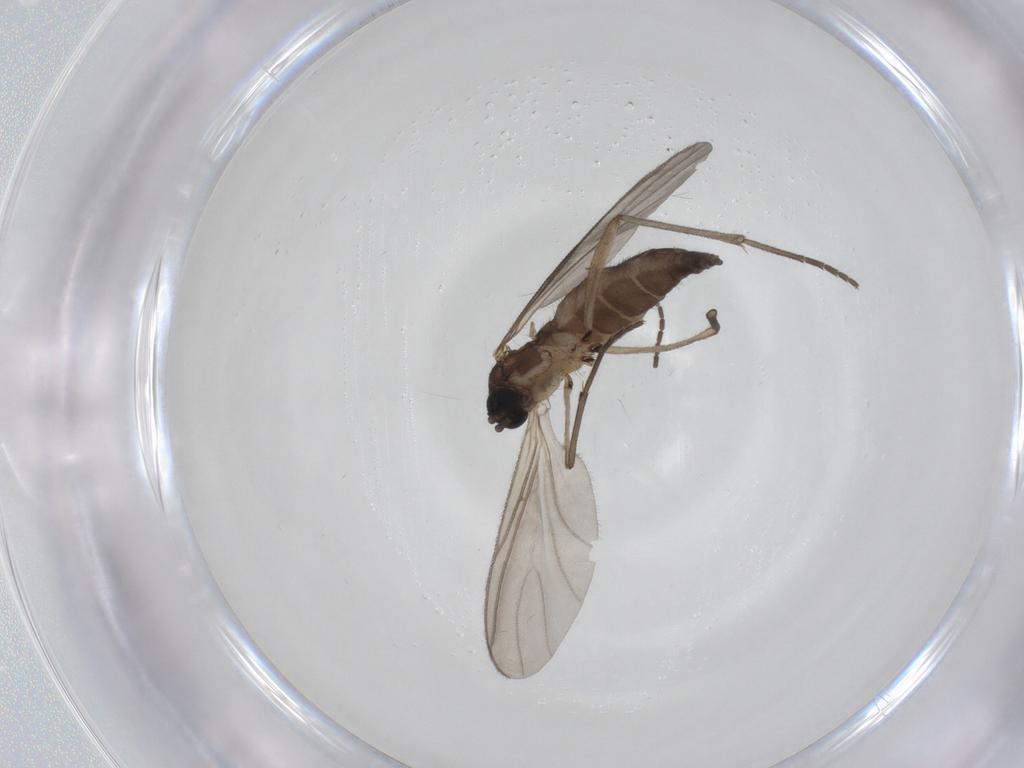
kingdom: Animalia
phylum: Arthropoda
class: Insecta
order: Diptera
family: Sciaridae
